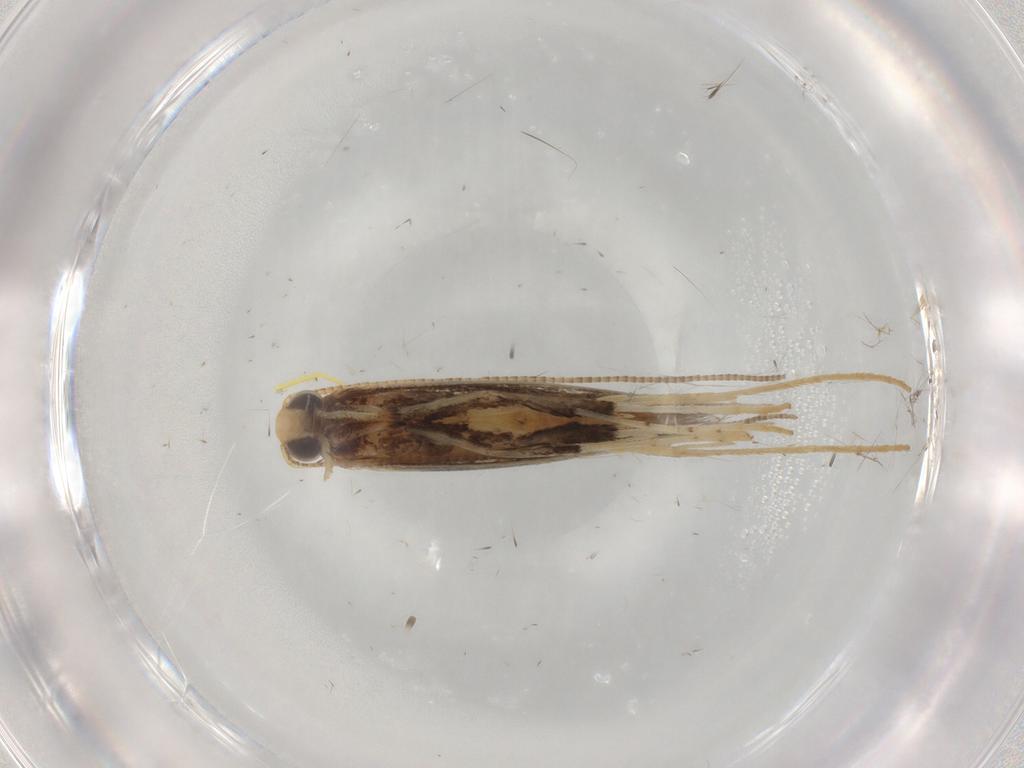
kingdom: Animalia
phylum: Arthropoda
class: Insecta
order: Lepidoptera
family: Gracillariidae
